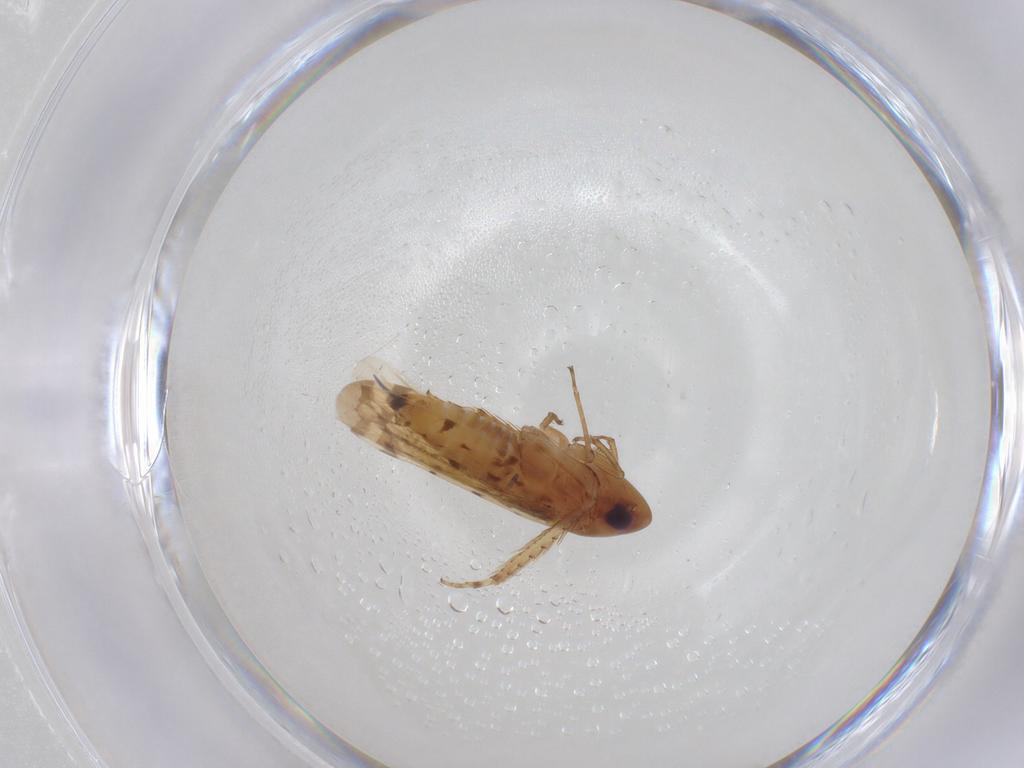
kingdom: Animalia
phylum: Arthropoda
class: Insecta
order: Hemiptera
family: Cicadellidae
